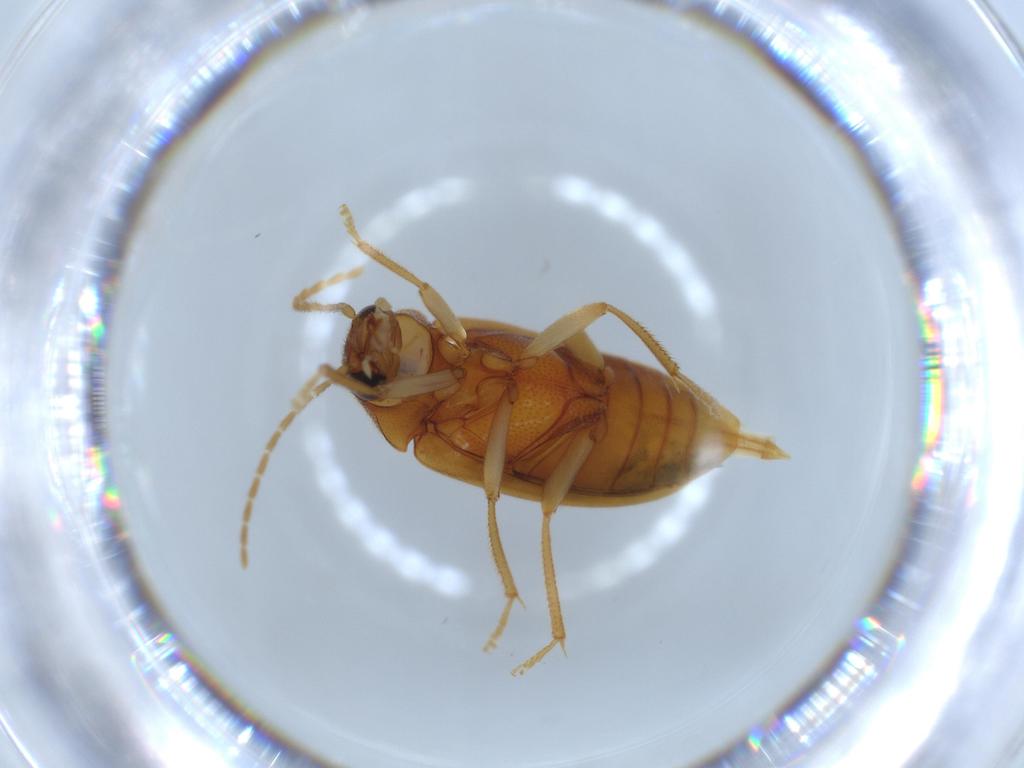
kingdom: Animalia
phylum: Arthropoda
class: Insecta
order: Coleoptera
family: Ptilodactylidae
